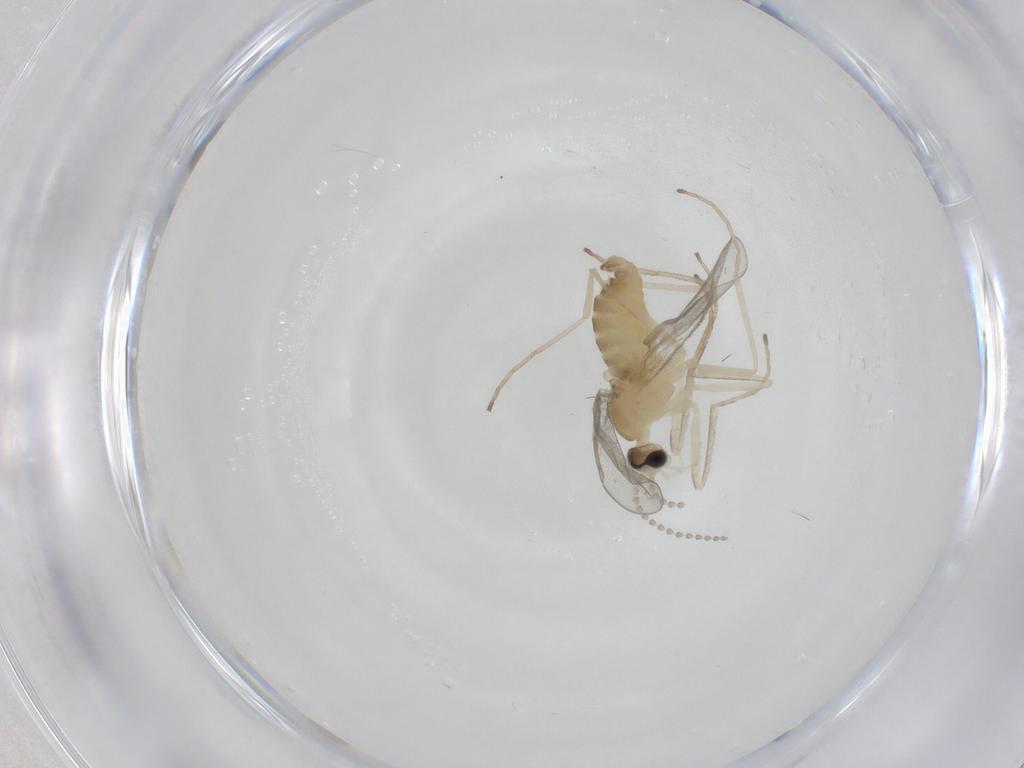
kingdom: Animalia
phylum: Arthropoda
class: Insecta
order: Diptera
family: Cecidomyiidae
